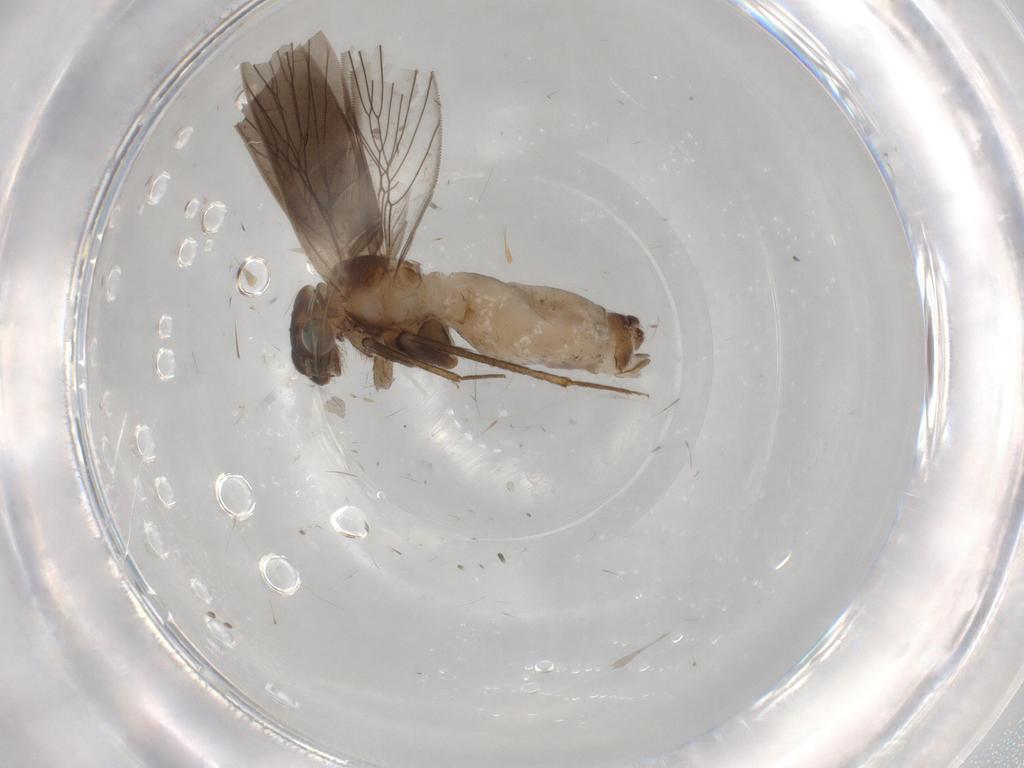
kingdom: Animalia
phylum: Arthropoda
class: Insecta
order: Psocodea
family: Lepidopsocidae
